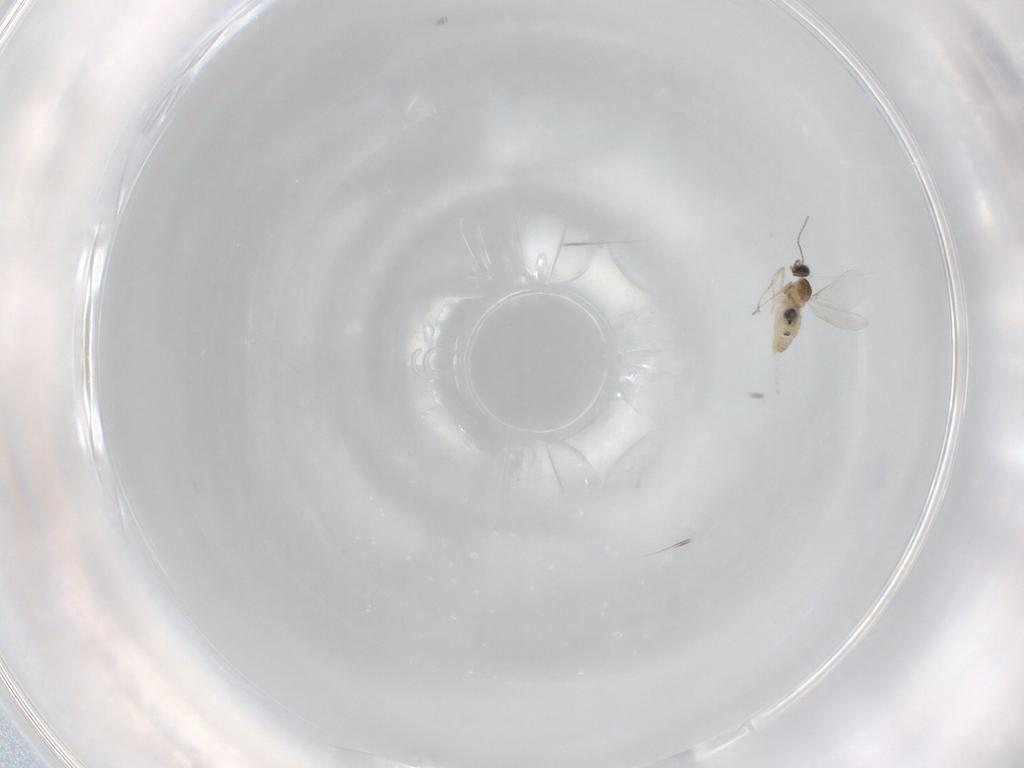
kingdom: Animalia
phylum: Arthropoda
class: Insecta
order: Diptera
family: Cecidomyiidae
